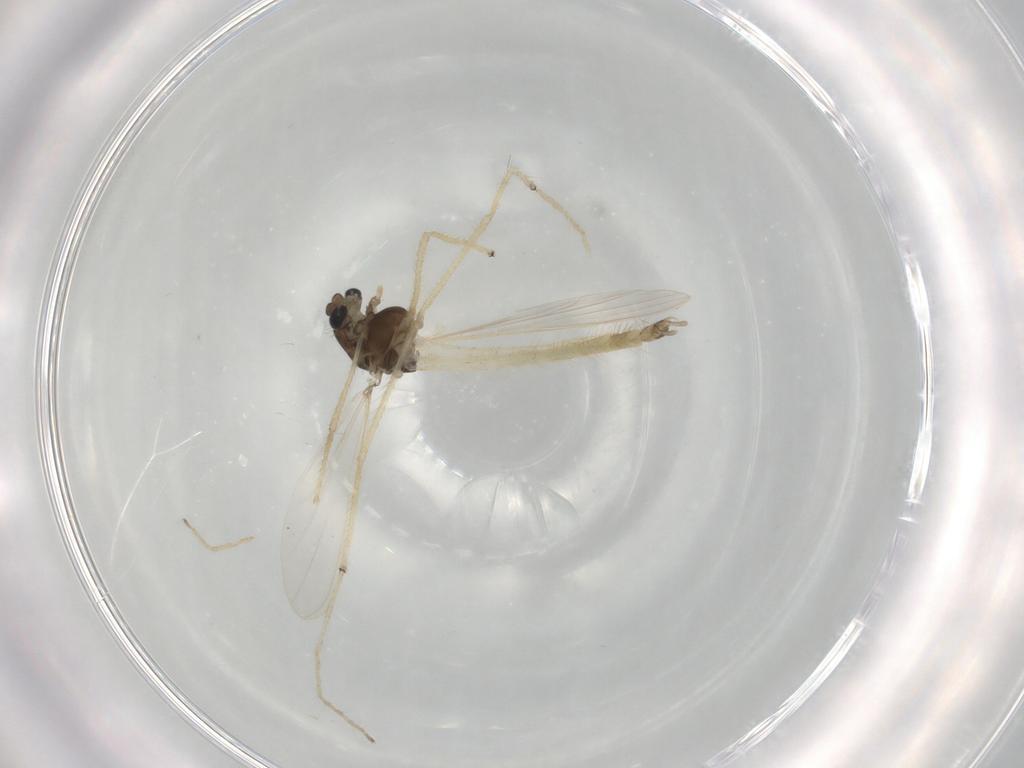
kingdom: Animalia
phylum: Arthropoda
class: Insecta
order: Diptera
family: Chironomidae
